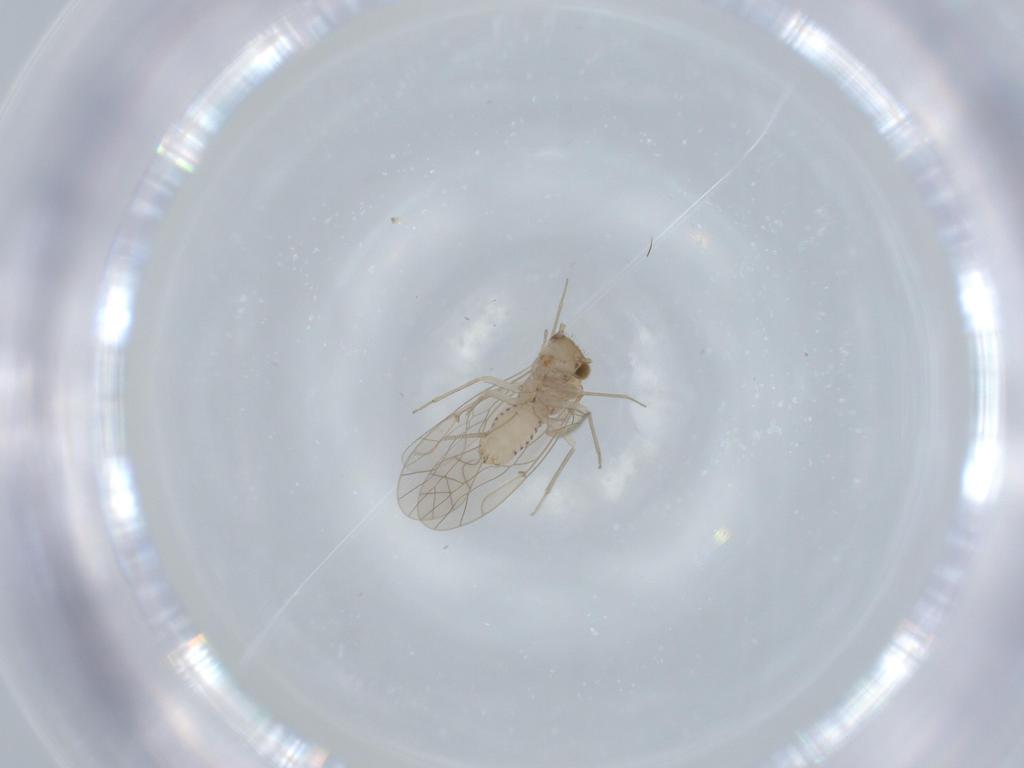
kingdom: Animalia
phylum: Arthropoda
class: Insecta
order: Psocodea
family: Lachesillidae
